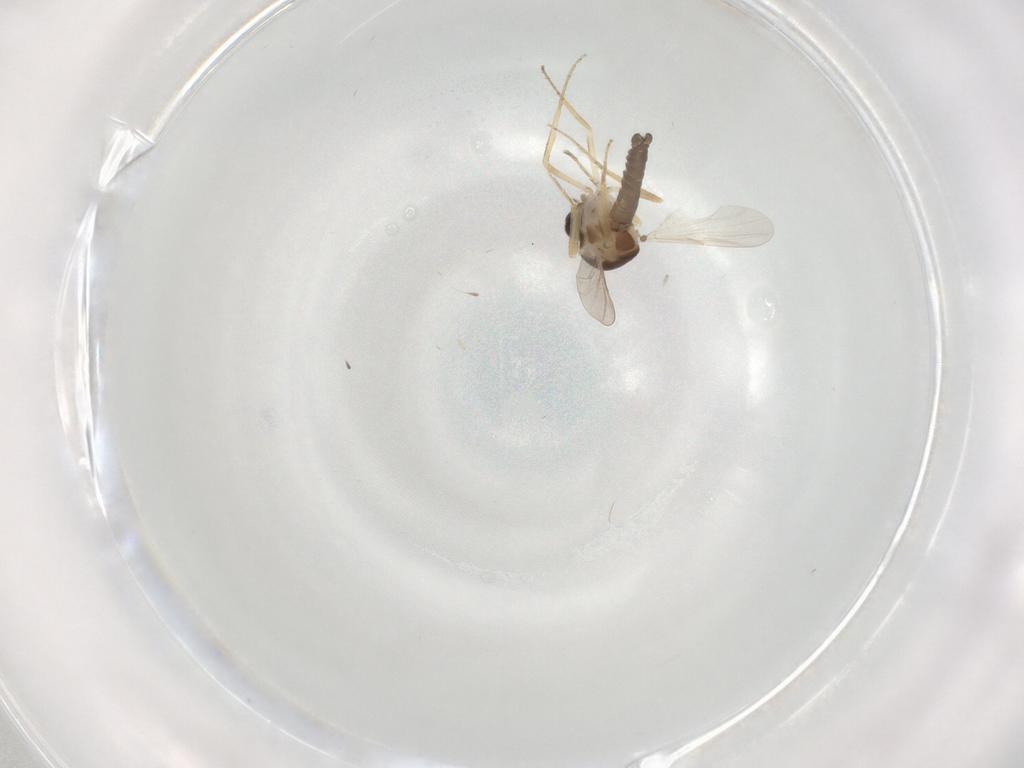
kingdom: Animalia
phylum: Arthropoda
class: Insecta
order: Diptera
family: Ceratopogonidae
